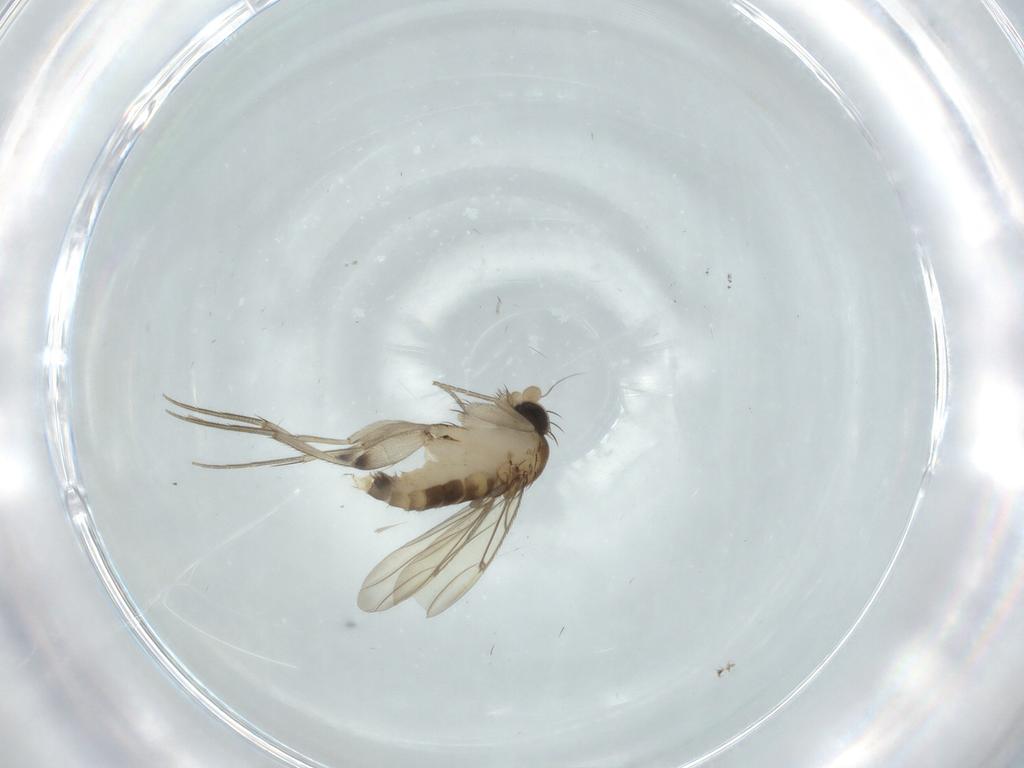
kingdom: Animalia
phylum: Arthropoda
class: Insecta
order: Diptera
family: Chironomidae
